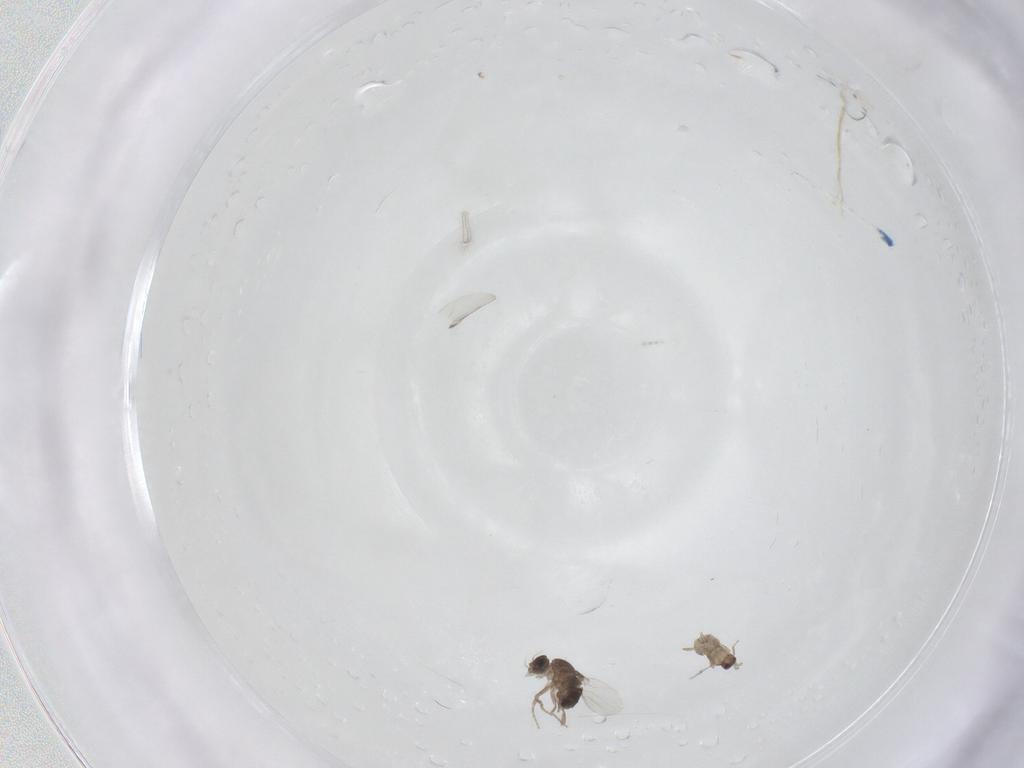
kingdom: Animalia
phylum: Arthropoda
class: Insecta
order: Diptera
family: Phoridae
